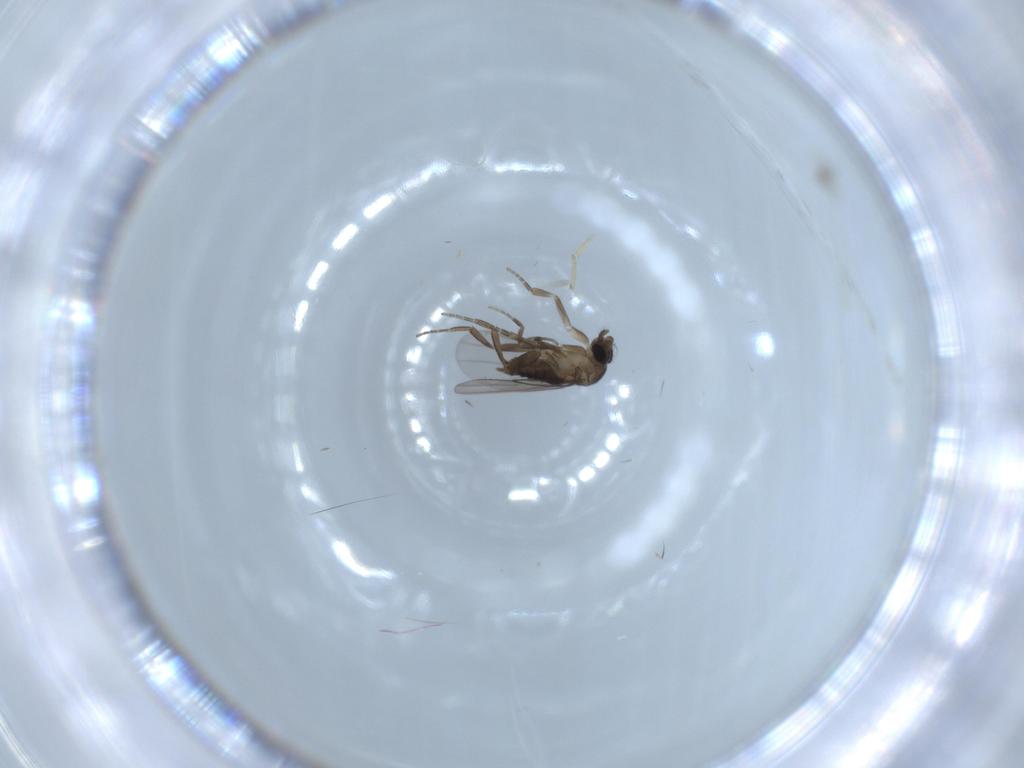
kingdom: Animalia
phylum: Arthropoda
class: Insecta
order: Diptera
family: Phoridae
